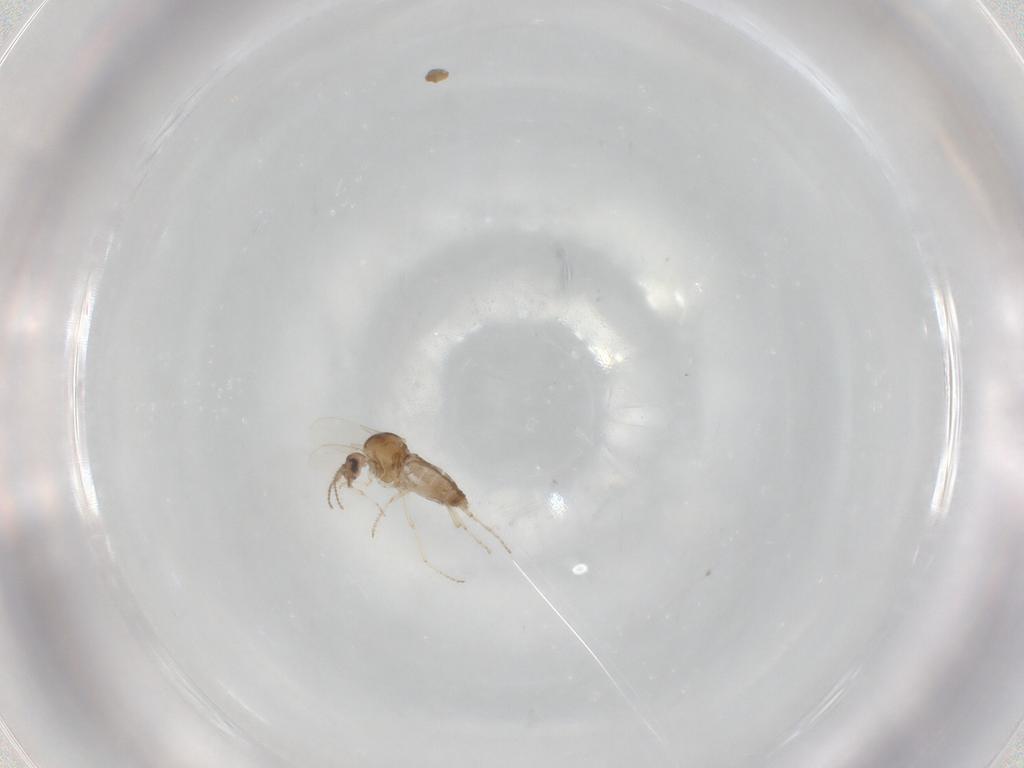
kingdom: Animalia
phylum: Arthropoda
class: Insecta
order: Diptera
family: Ceratopogonidae
